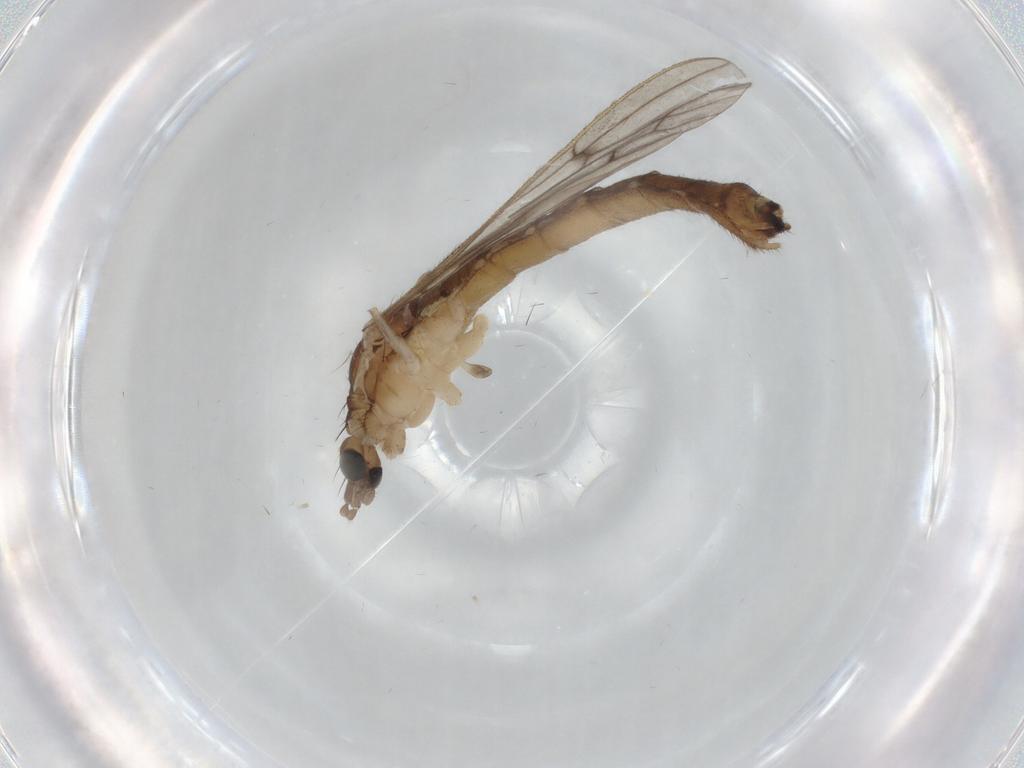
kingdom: Animalia
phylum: Arthropoda
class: Insecta
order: Diptera
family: Limoniidae
